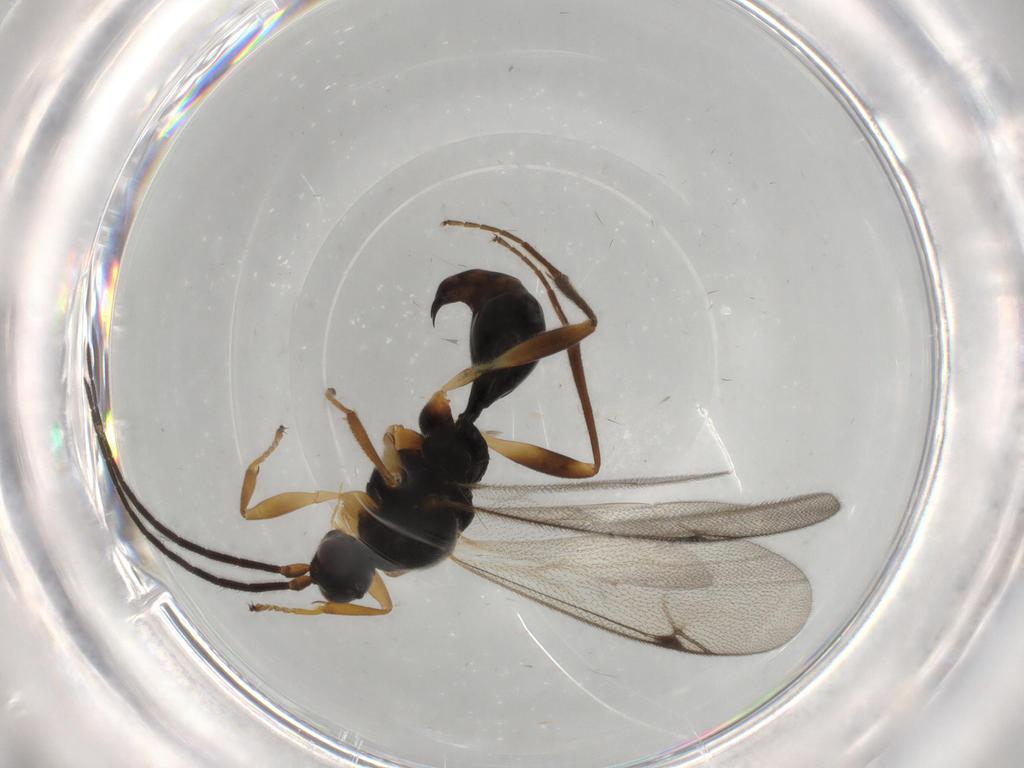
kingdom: Animalia
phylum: Arthropoda
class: Insecta
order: Hymenoptera
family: Proctotrupidae
